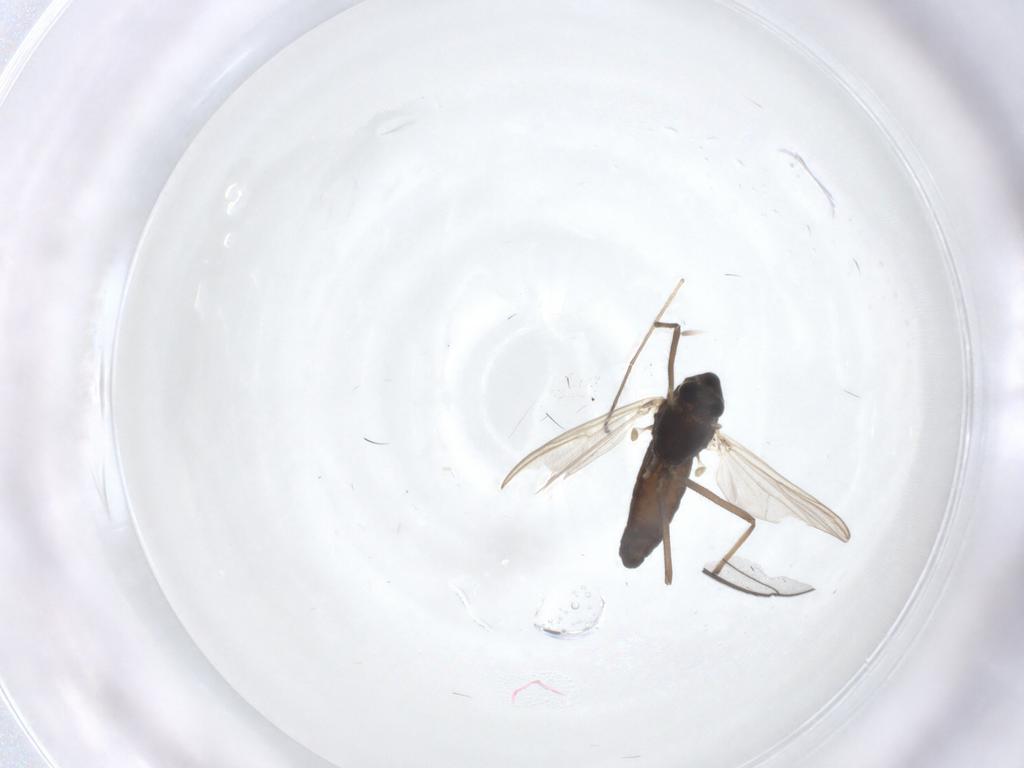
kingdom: Animalia
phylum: Arthropoda
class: Insecta
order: Diptera
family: Chironomidae
